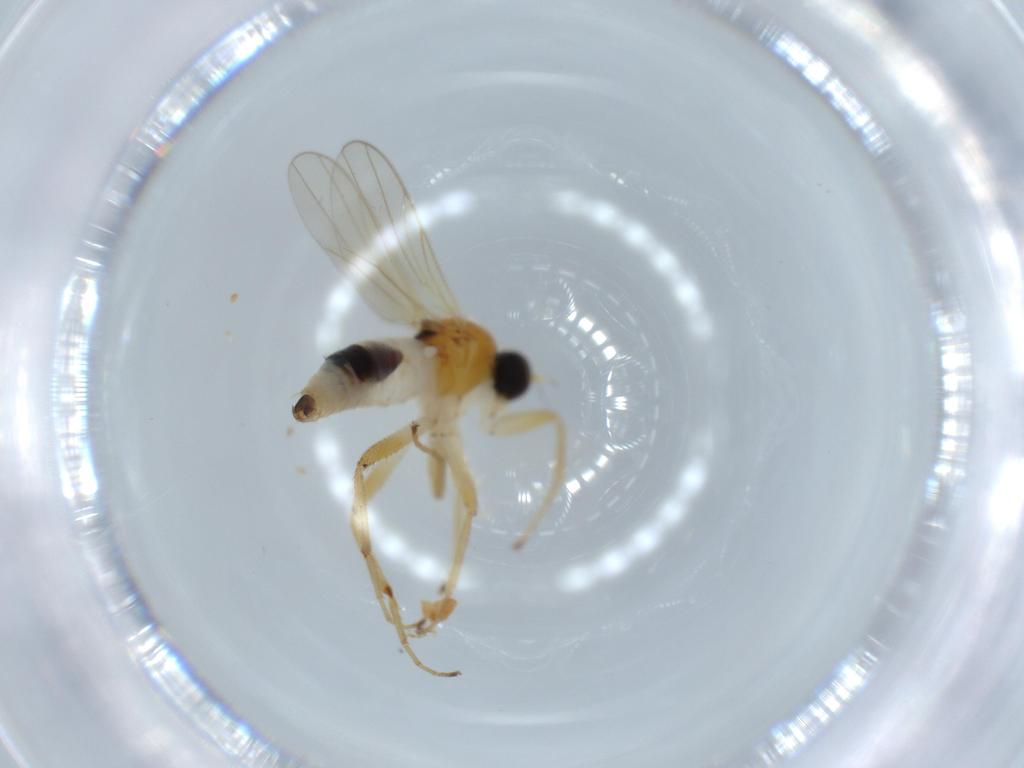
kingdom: Animalia
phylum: Arthropoda
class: Insecta
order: Diptera
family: Hybotidae
